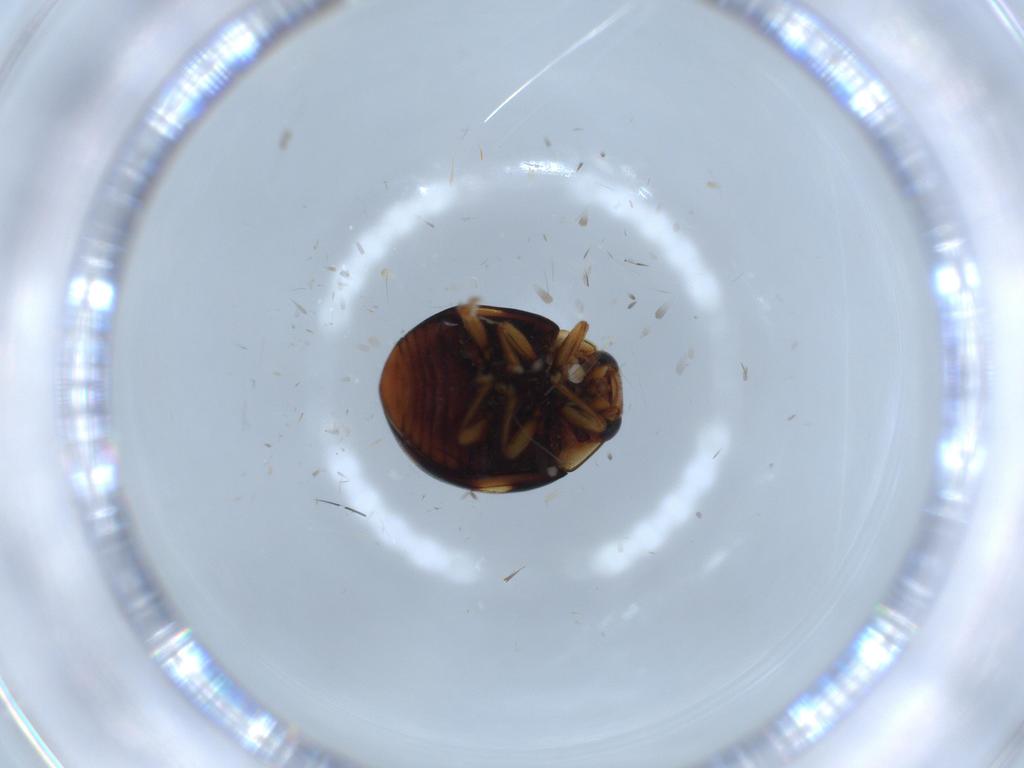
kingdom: Animalia
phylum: Arthropoda
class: Insecta
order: Coleoptera
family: Coccinellidae
